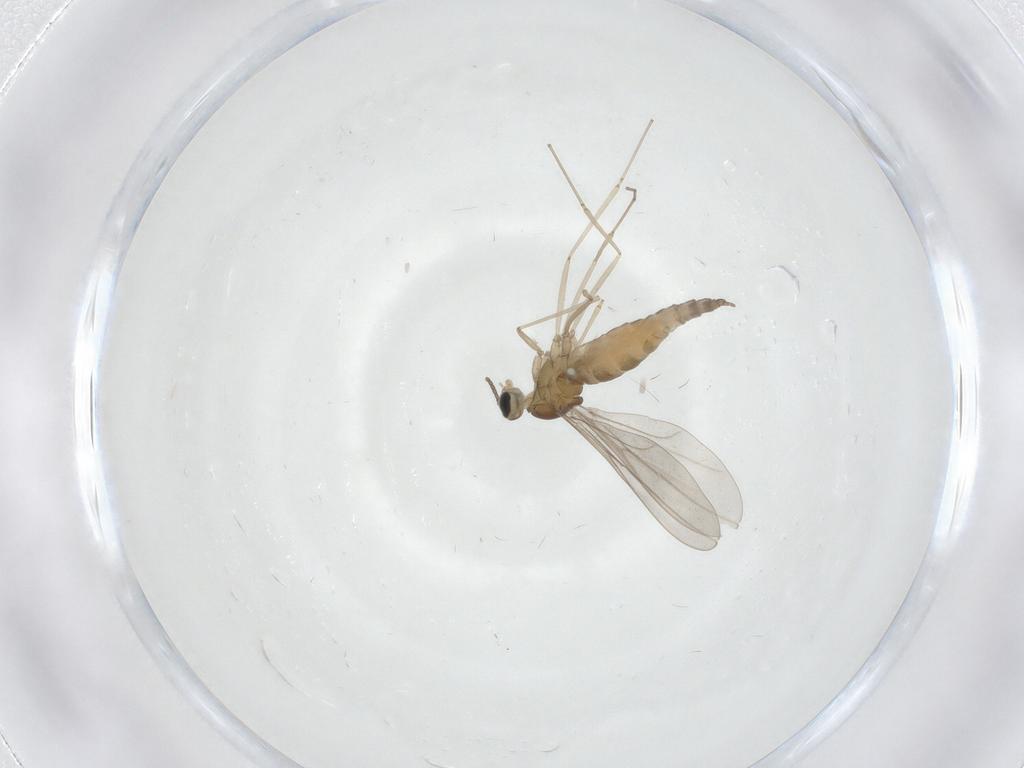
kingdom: Animalia
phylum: Arthropoda
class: Insecta
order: Diptera
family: Cecidomyiidae
